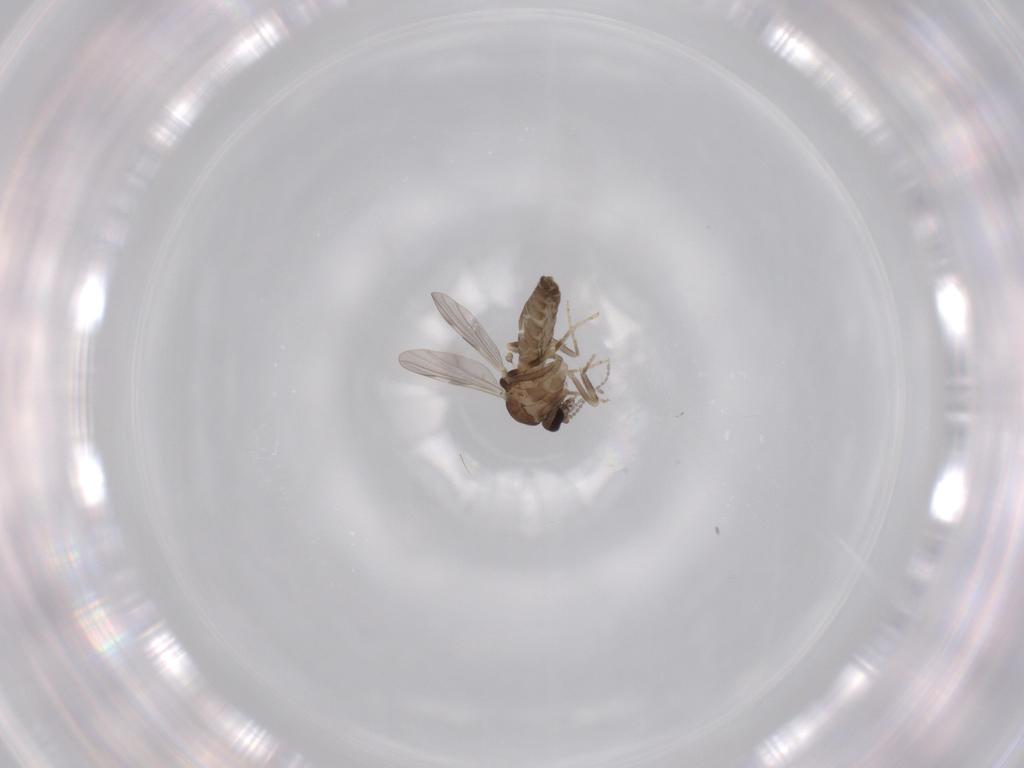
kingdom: Animalia
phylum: Arthropoda
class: Insecta
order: Diptera
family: Ceratopogonidae
